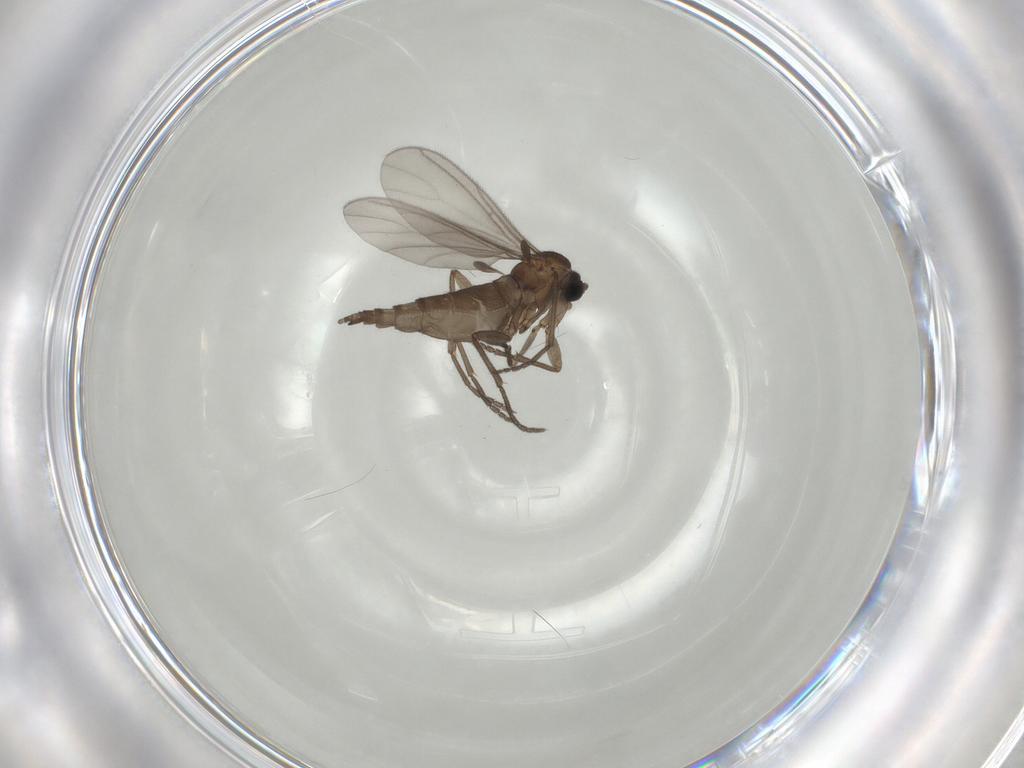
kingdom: Animalia
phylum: Arthropoda
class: Insecta
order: Diptera
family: Sciaridae
